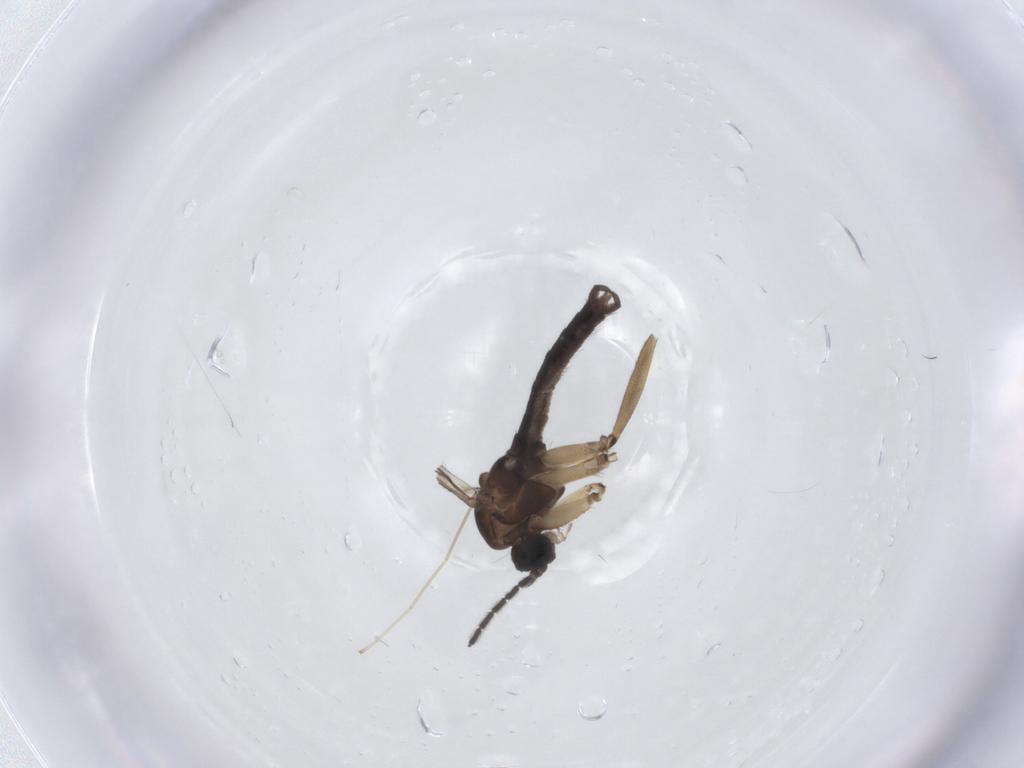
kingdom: Animalia
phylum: Arthropoda
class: Insecta
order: Diptera
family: Sciaridae
